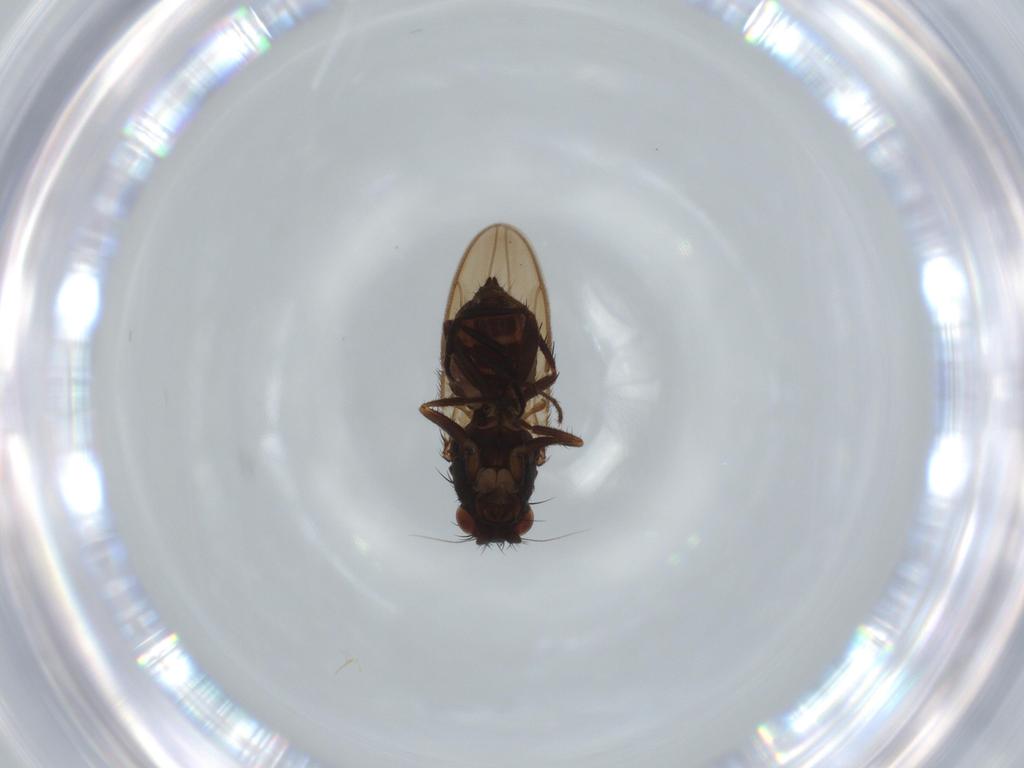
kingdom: Animalia
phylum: Arthropoda
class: Insecta
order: Diptera
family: Sphaeroceridae
